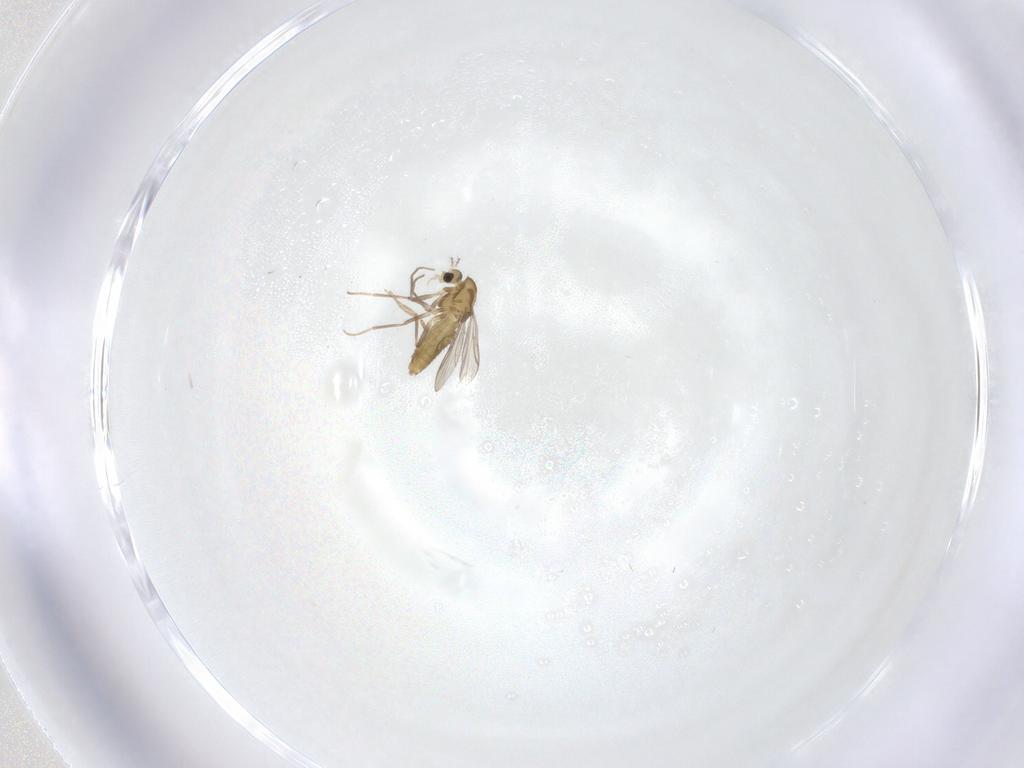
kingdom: Animalia
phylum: Arthropoda
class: Insecta
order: Diptera
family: Chironomidae
